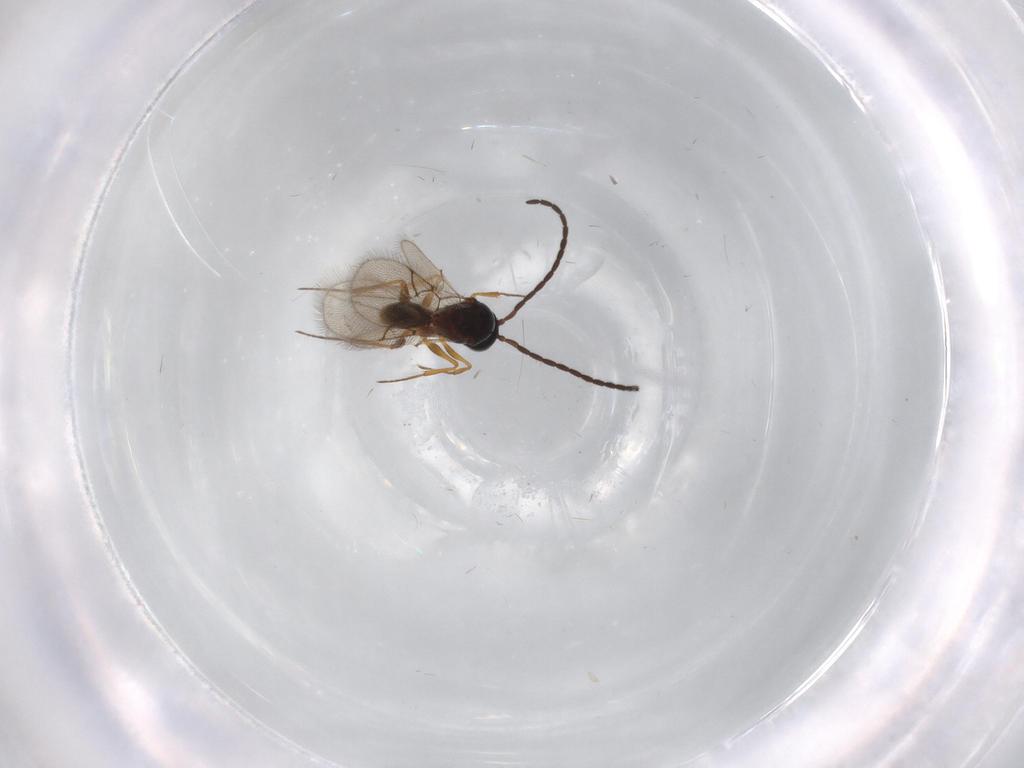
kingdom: Animalia
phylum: Arthropoda
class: Insecta
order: Hymenoptera
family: Figitidae
